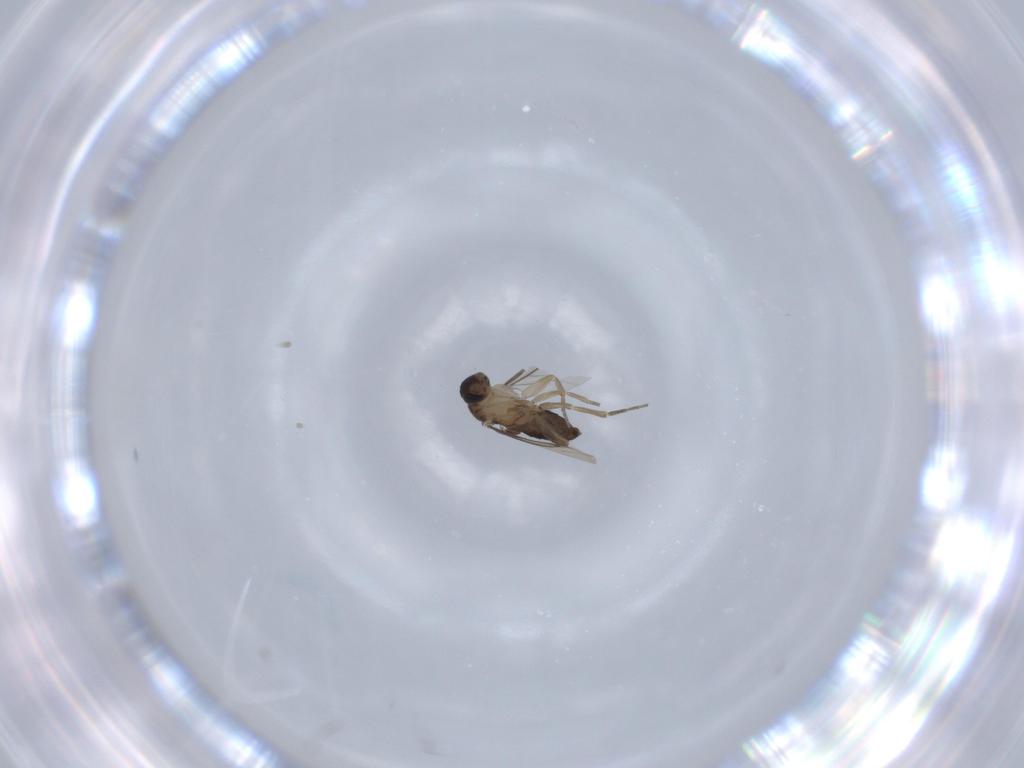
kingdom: Animalia
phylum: Arthropoda
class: Insecta
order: Diptera
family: Phoridae
